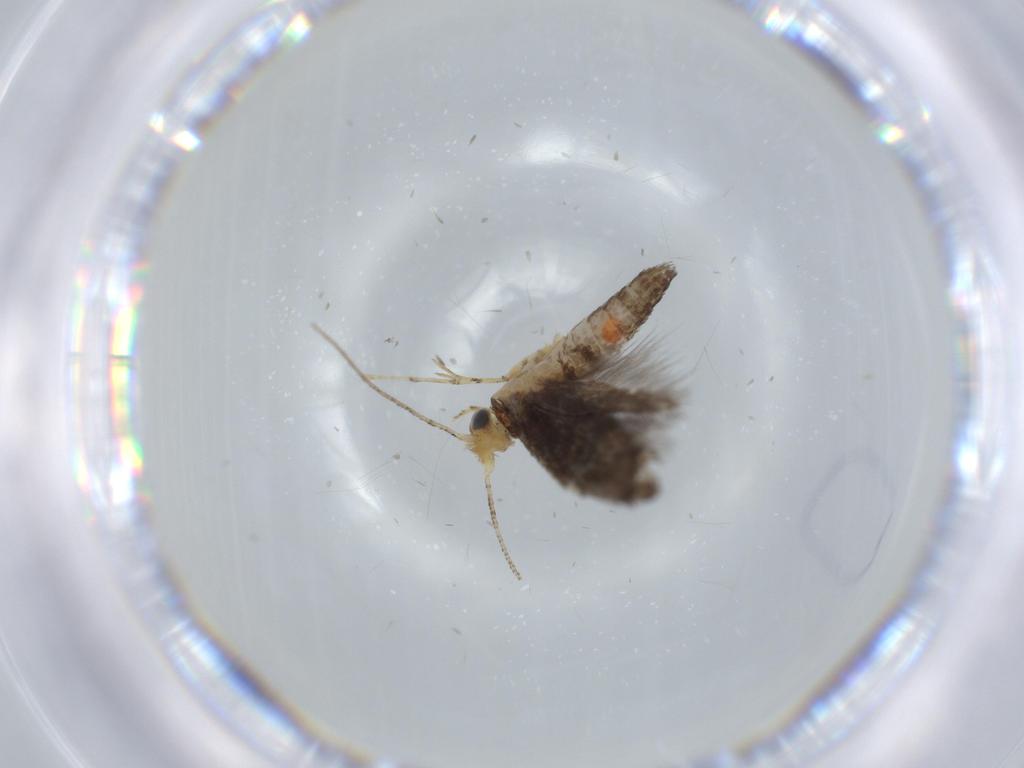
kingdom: Animalia
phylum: Arthropoda
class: Insecta
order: Lepidoptera
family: Argyresthiidae
